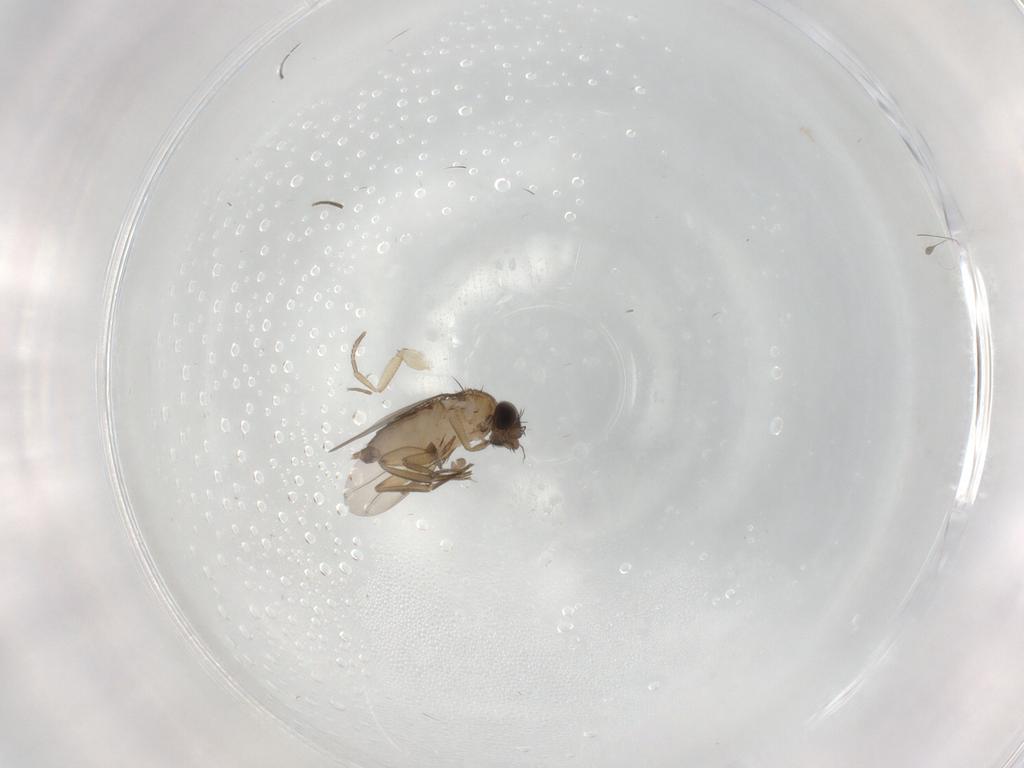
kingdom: Animalia
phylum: Arthropoda
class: Insecta
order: Diptera
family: Phoridae
